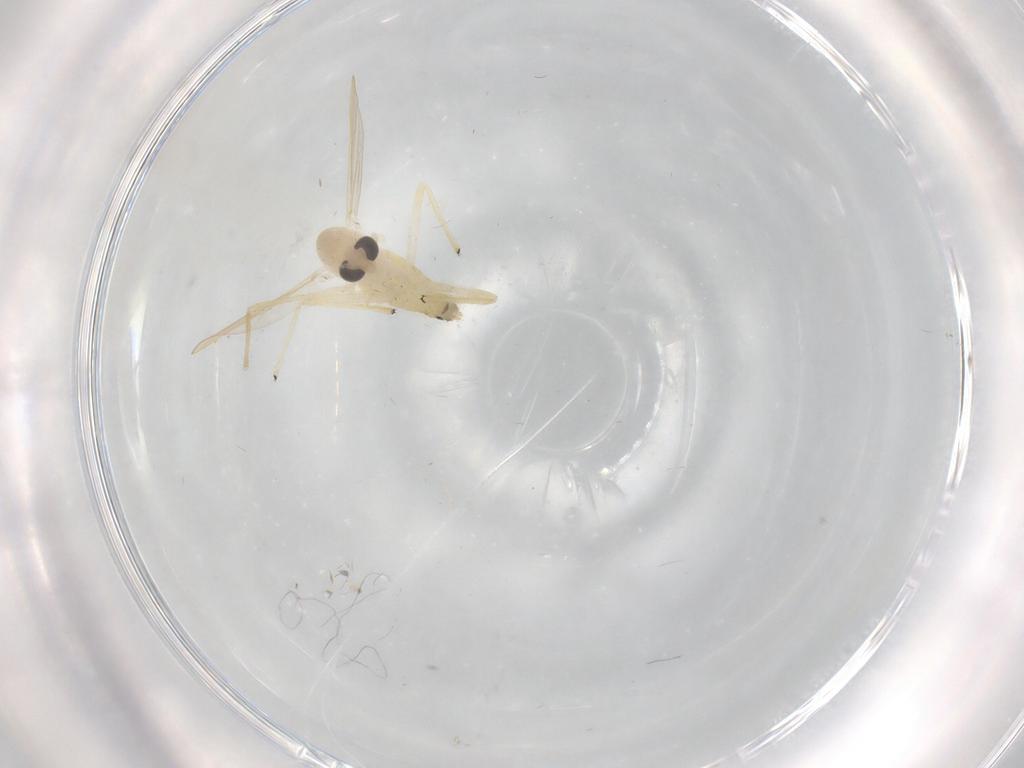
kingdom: Animalia
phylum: Arthropoda
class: Insecta
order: Diptera
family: Chironomidae
